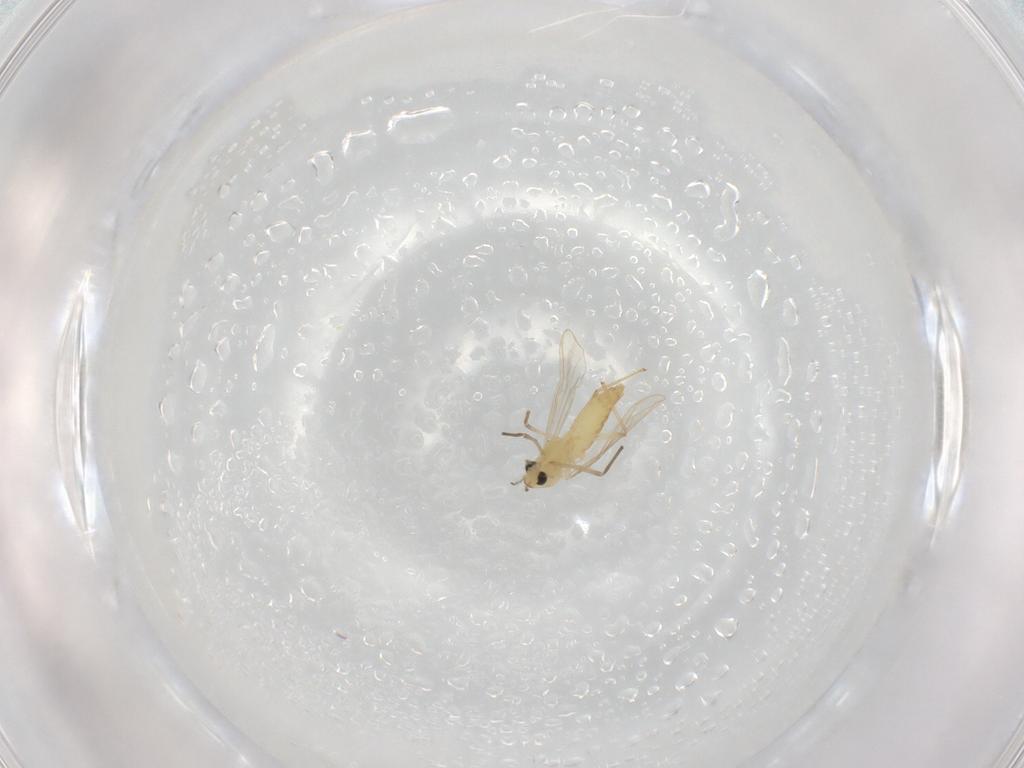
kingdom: Animalia
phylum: Arthropoda
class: Insecta
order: Diptera
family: Chironomidae
